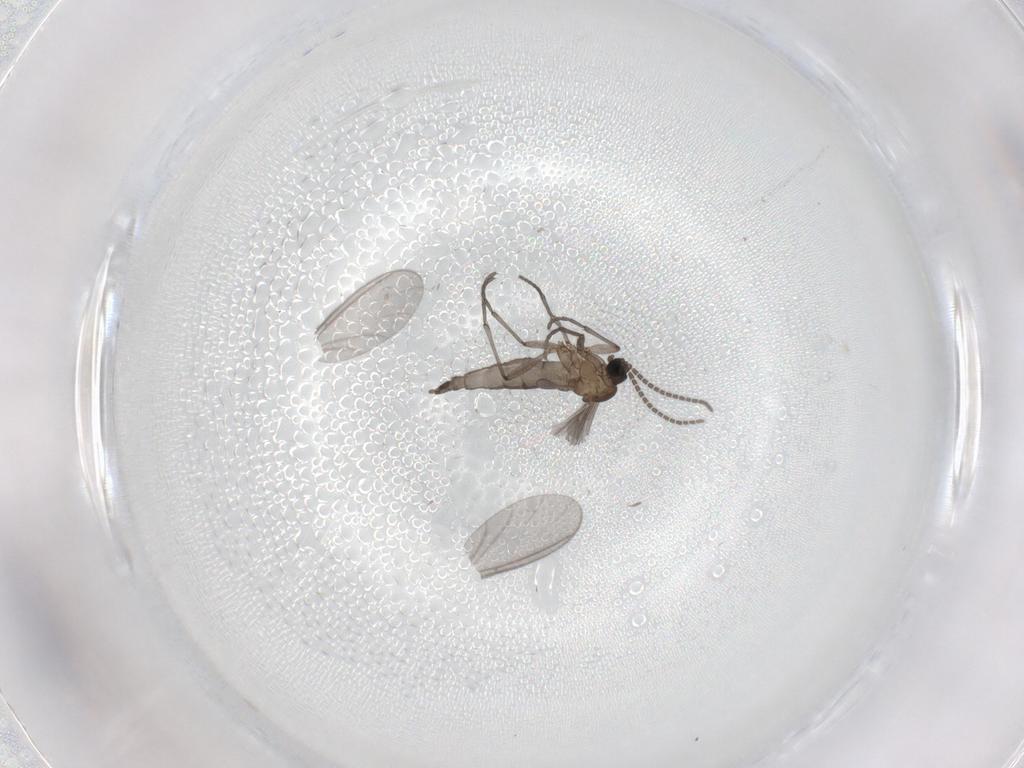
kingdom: Animalia
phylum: Arthropoda
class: Insecta
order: Diptera
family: Sciaridae
